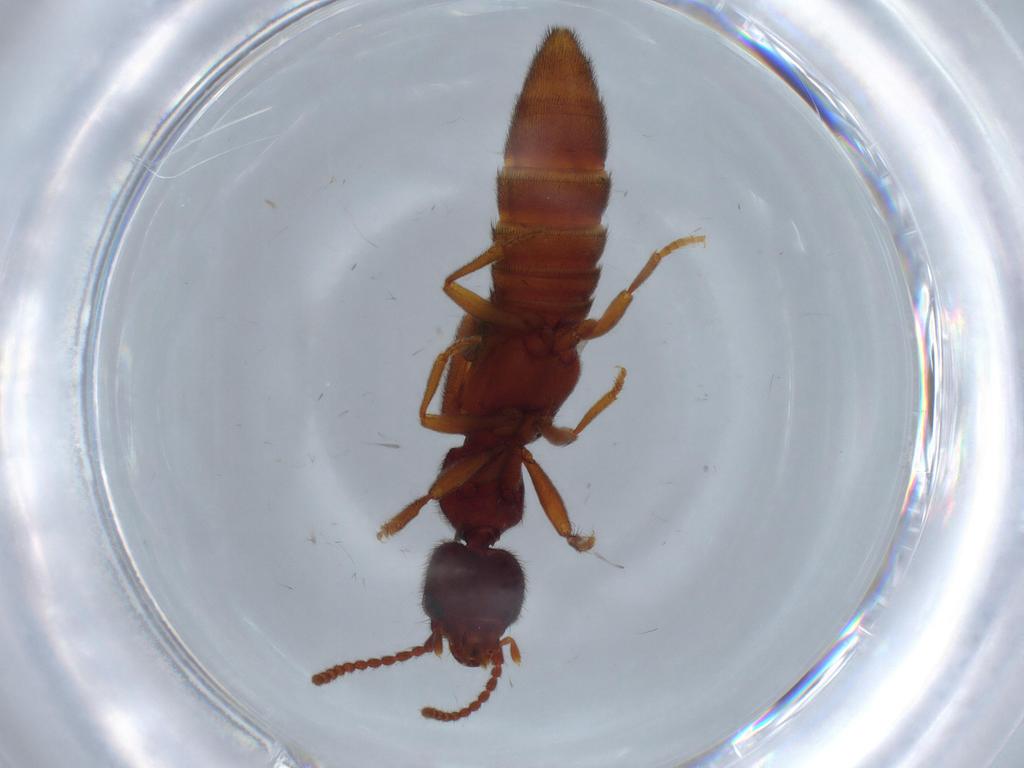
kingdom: Animalia
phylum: Arthropoda
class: Insecta
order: Coleoptera
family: Staphylinidae
